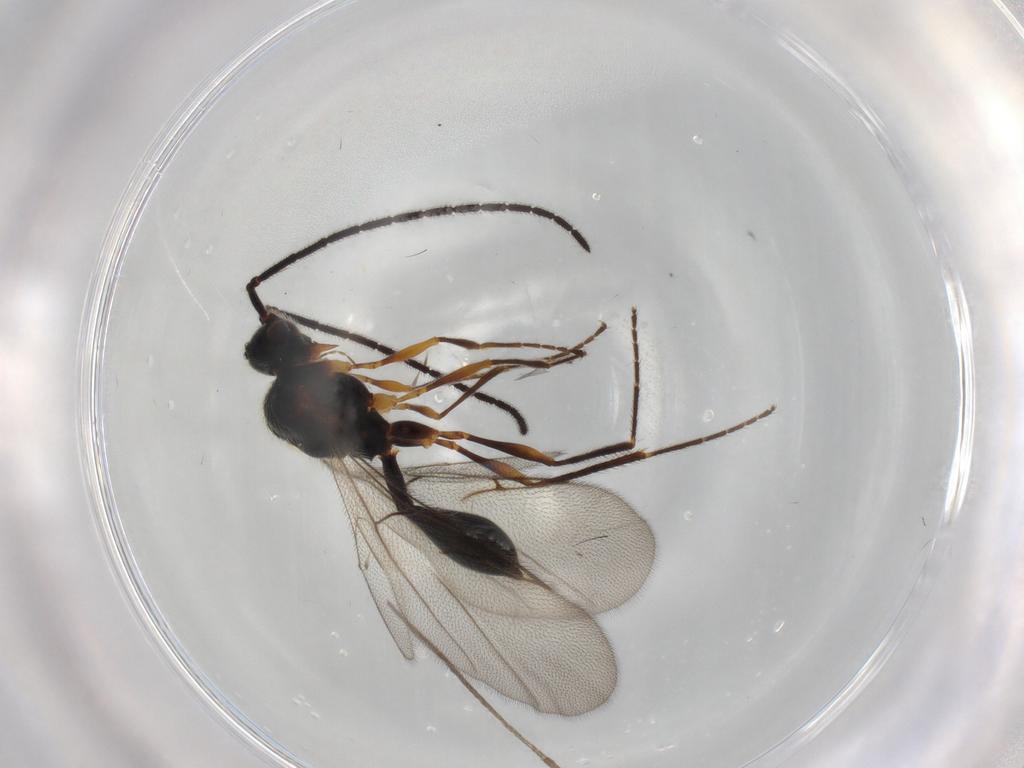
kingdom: Animalia
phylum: Arthropoda
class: Insecta
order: Hymenoptera
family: Diapriidae
